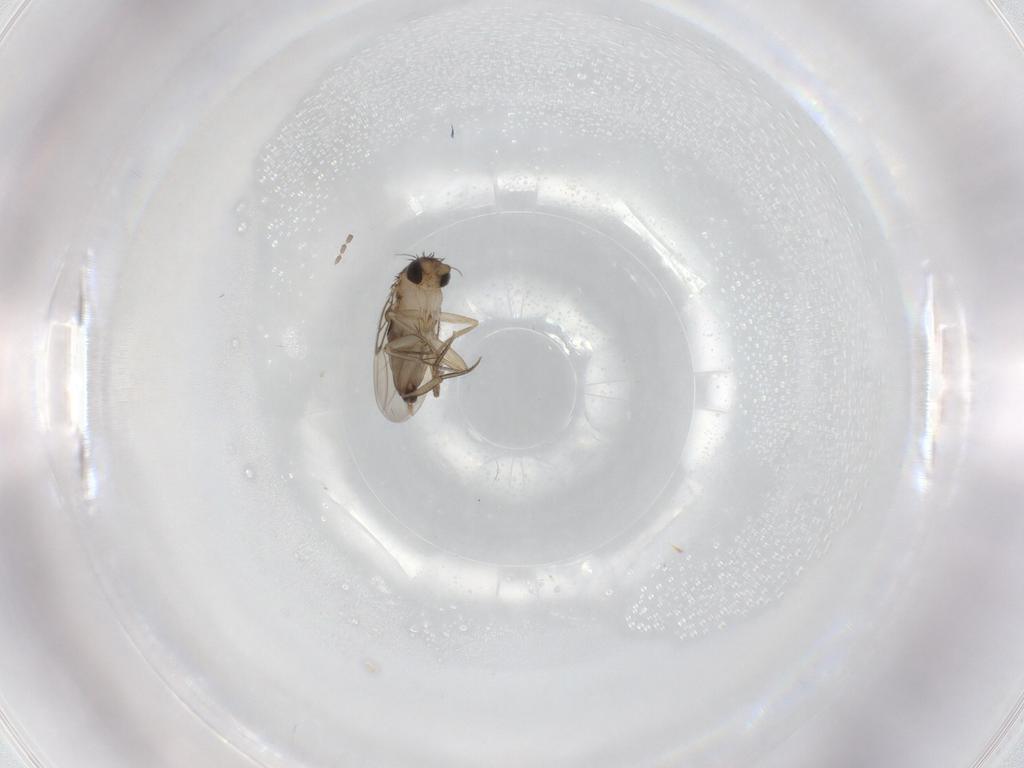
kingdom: Animalia
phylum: Arthropoda
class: Insecta
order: Diptera
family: Phoridae
